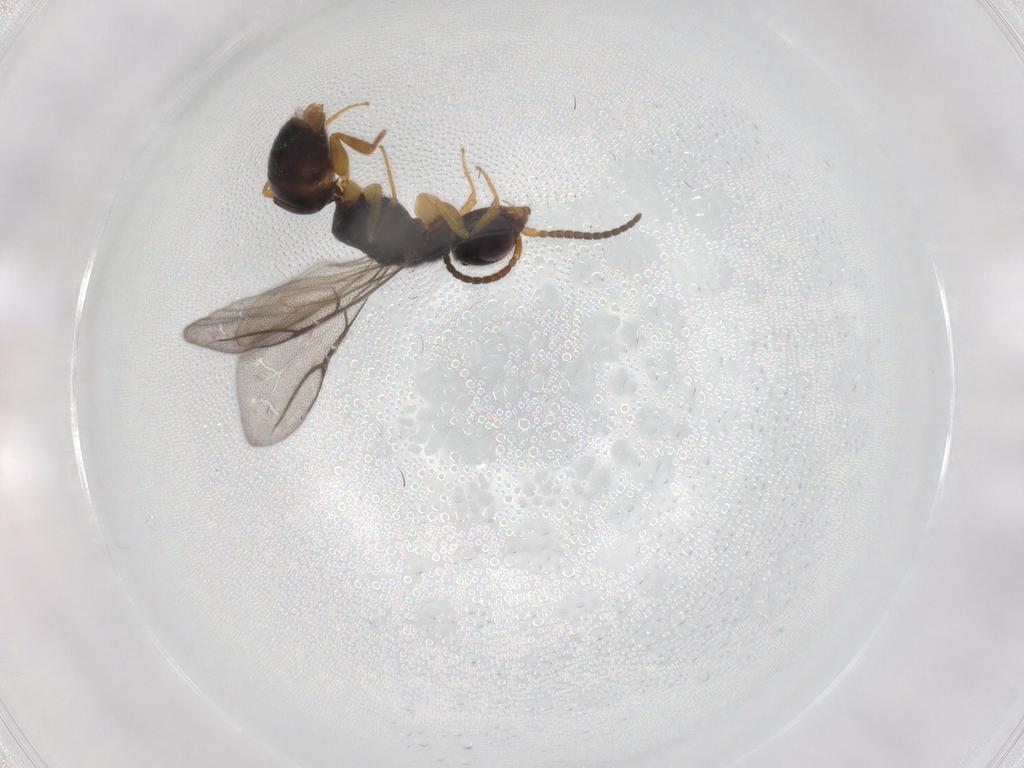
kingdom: Animalia
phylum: Arthropoda
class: Insecta
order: Hymenoptera
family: Bethylidae
